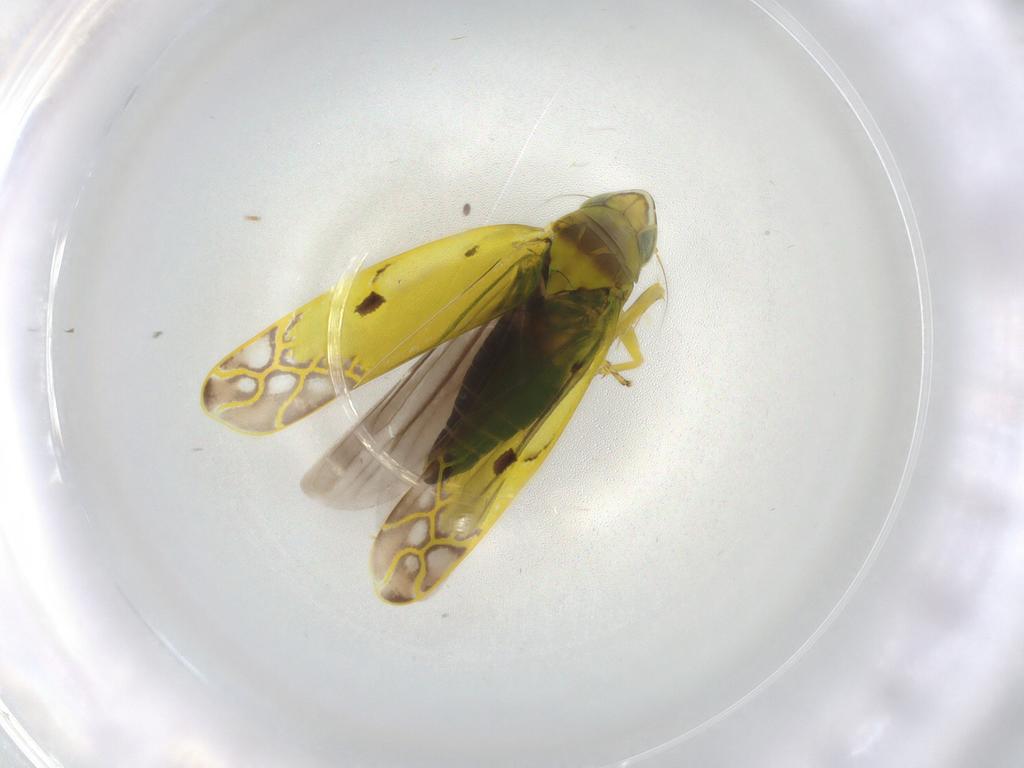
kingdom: Animalia
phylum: Arthropoda
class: Insecta
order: Hemiptera
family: Cicadellidae
